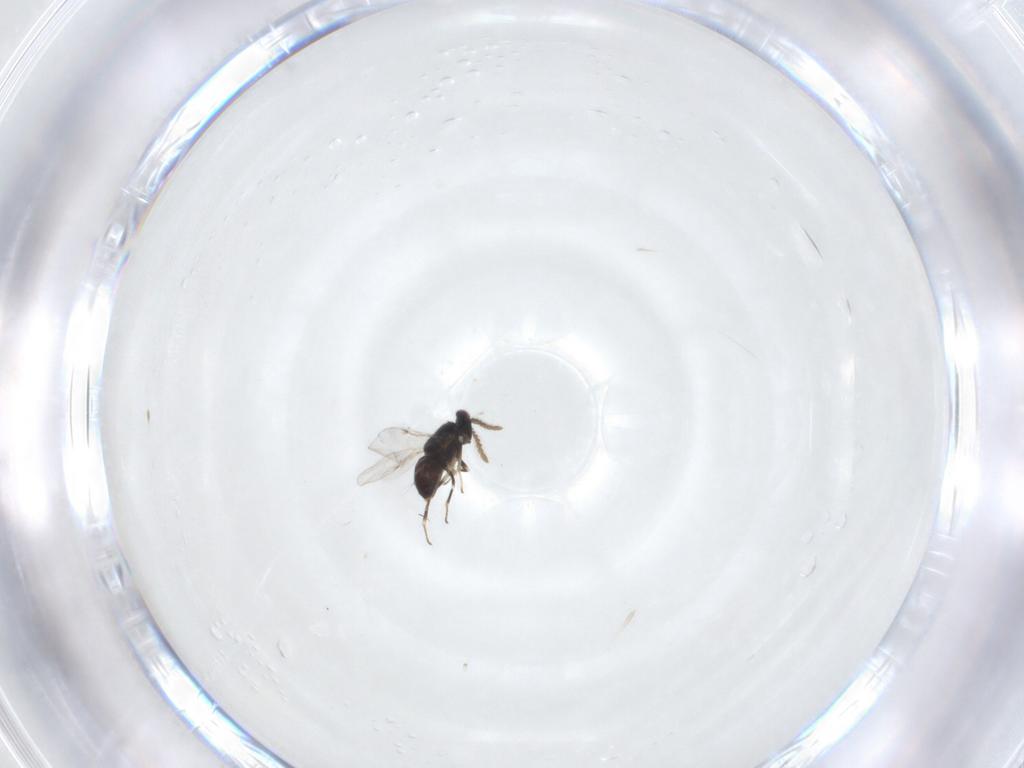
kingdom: Animalia
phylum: Arthropoda
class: Insecta
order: Hymenoptera
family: Encyrtidae
